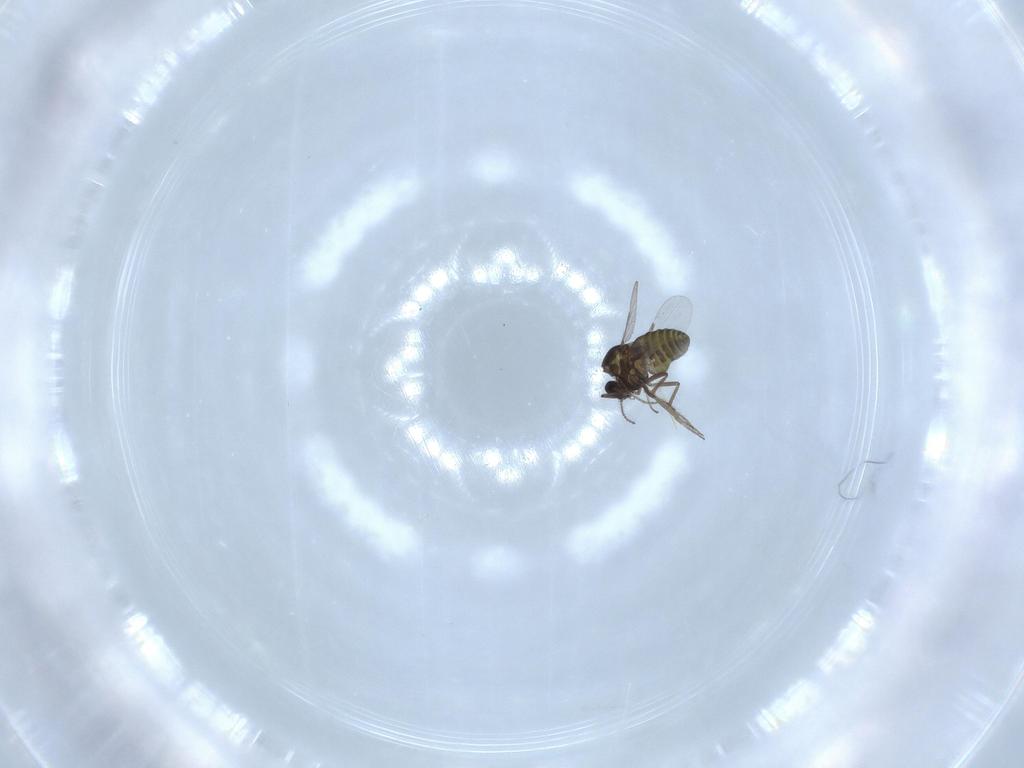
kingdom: Animalia
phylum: Arthropoda
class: Insecta
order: Diptera
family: Ceratopogonidae
